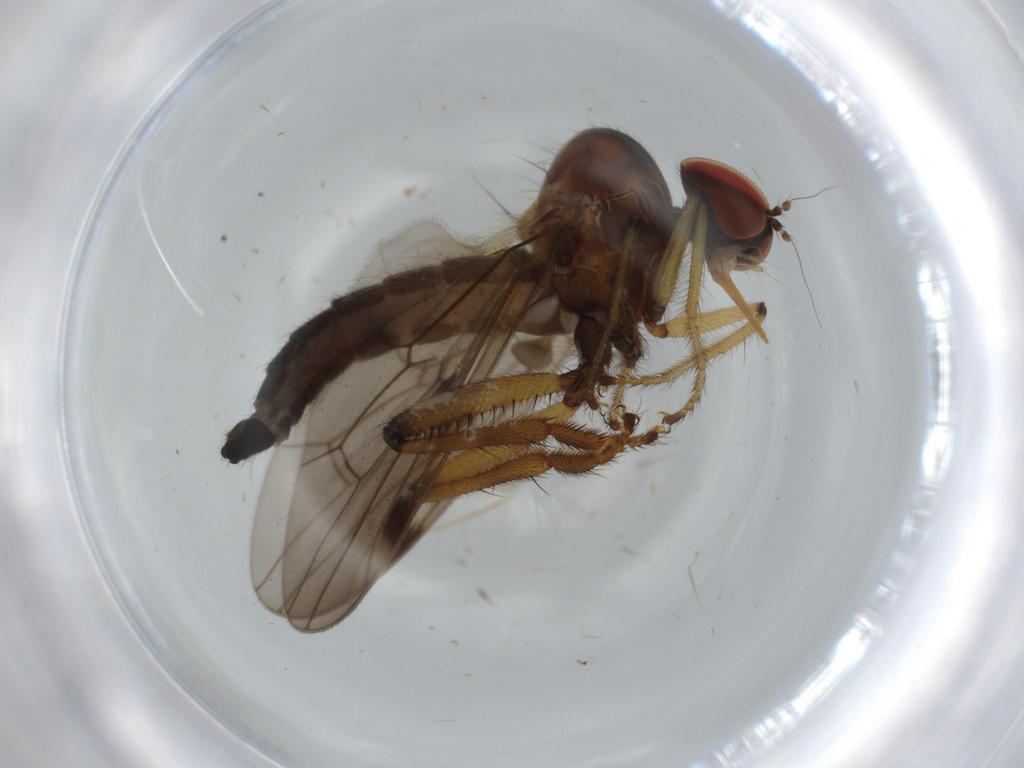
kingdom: Animalia
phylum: Arthropoda
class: Insecta
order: Diptera
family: Hybotidae
